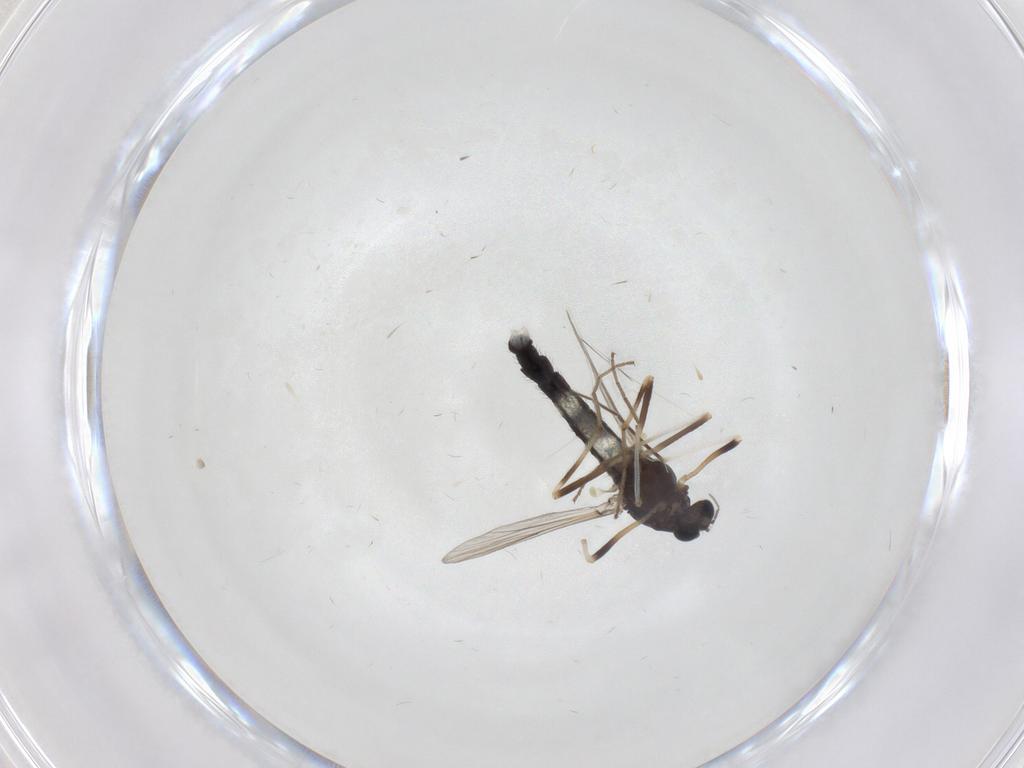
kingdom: Animalia
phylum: Arthropoda
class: Insecta
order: Diptera
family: Chironomidae
